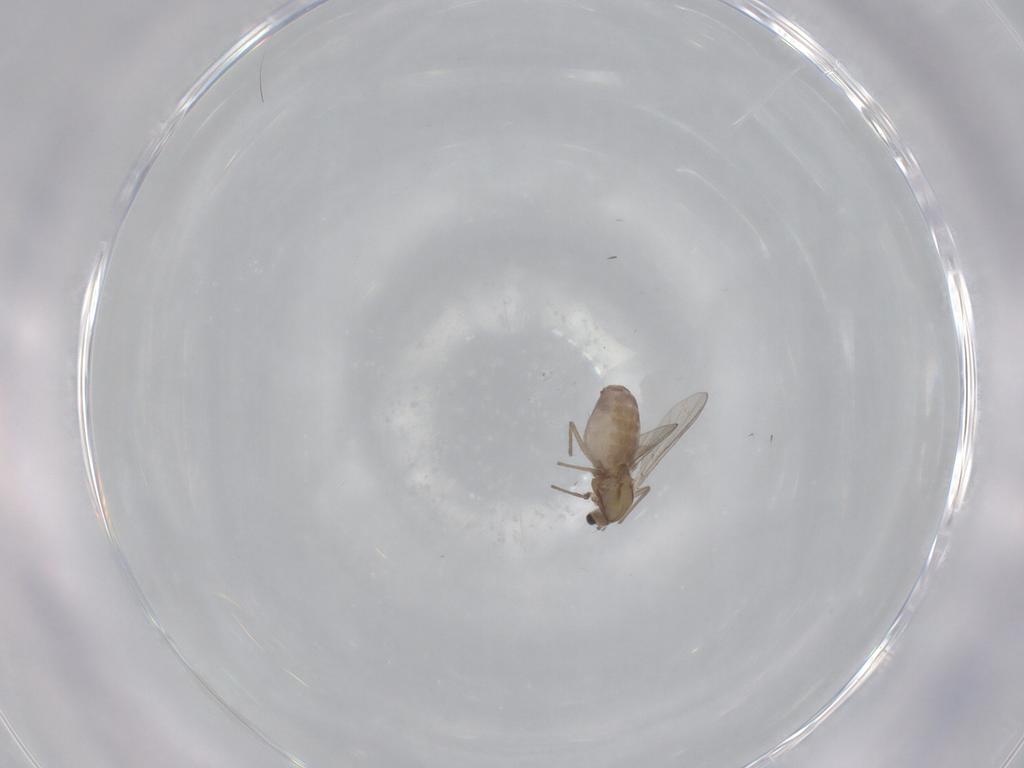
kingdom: Animalia
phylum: Arthropoda
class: Insecta
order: Diptera
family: Chironomidae
